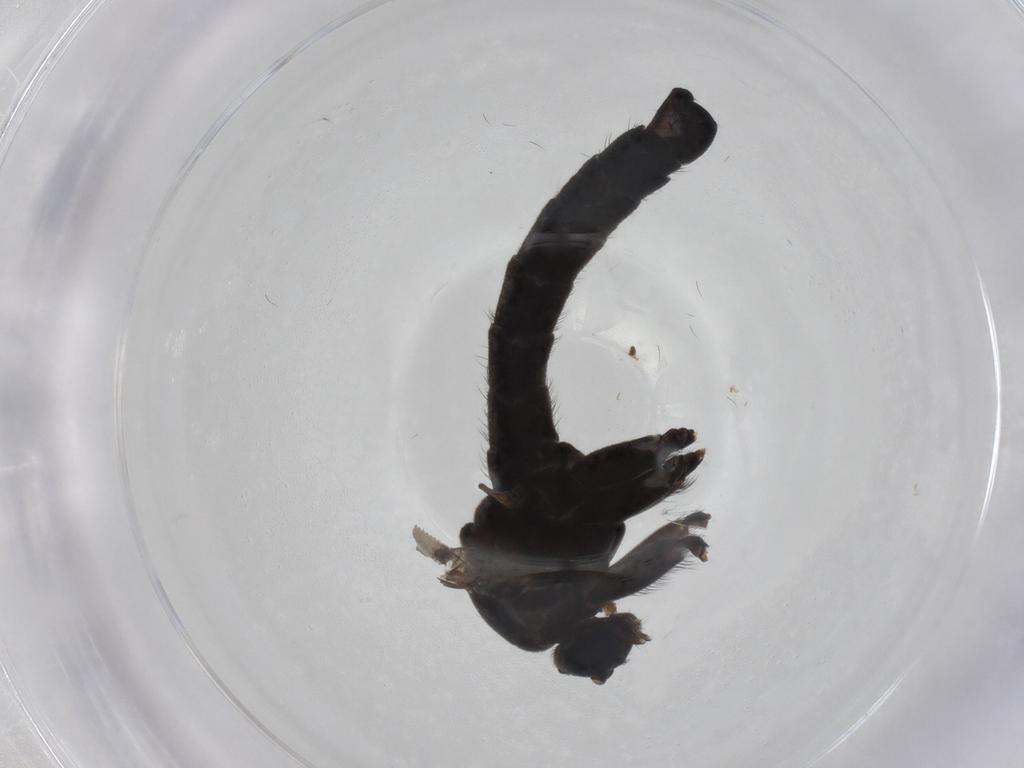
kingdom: Animalia
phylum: Arthropoda
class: Insecta
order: Diptera
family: Sciaridae
